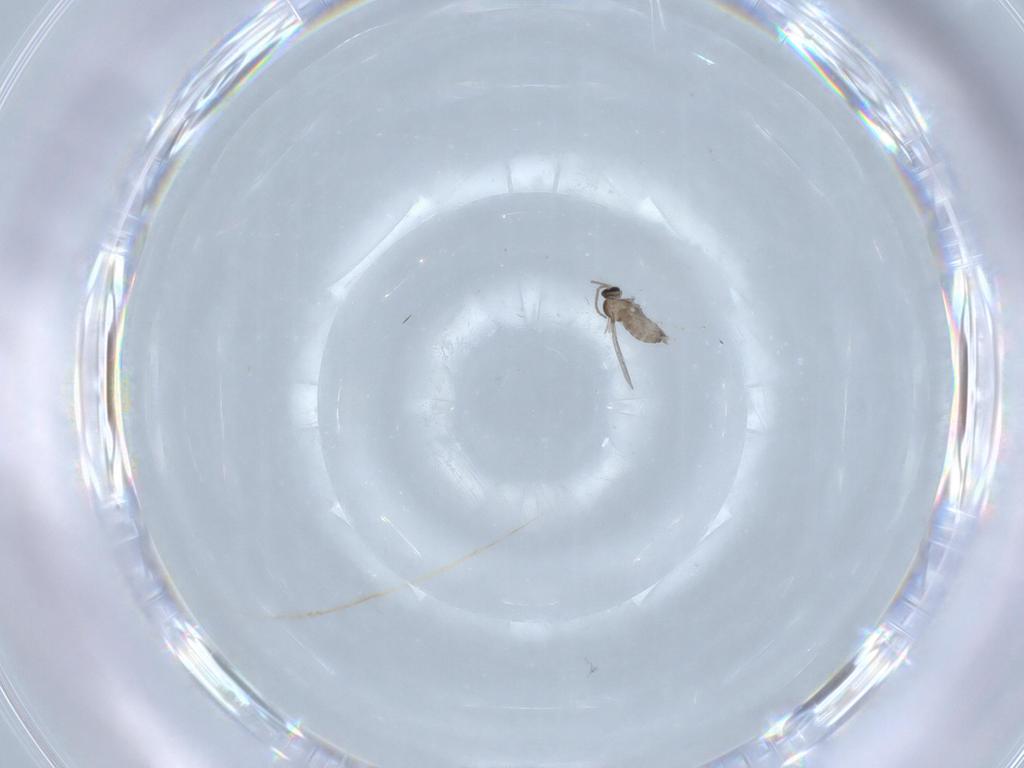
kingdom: Animalia
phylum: Arthropoda
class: Insecta
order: Diptera
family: Cecidomyiidae
